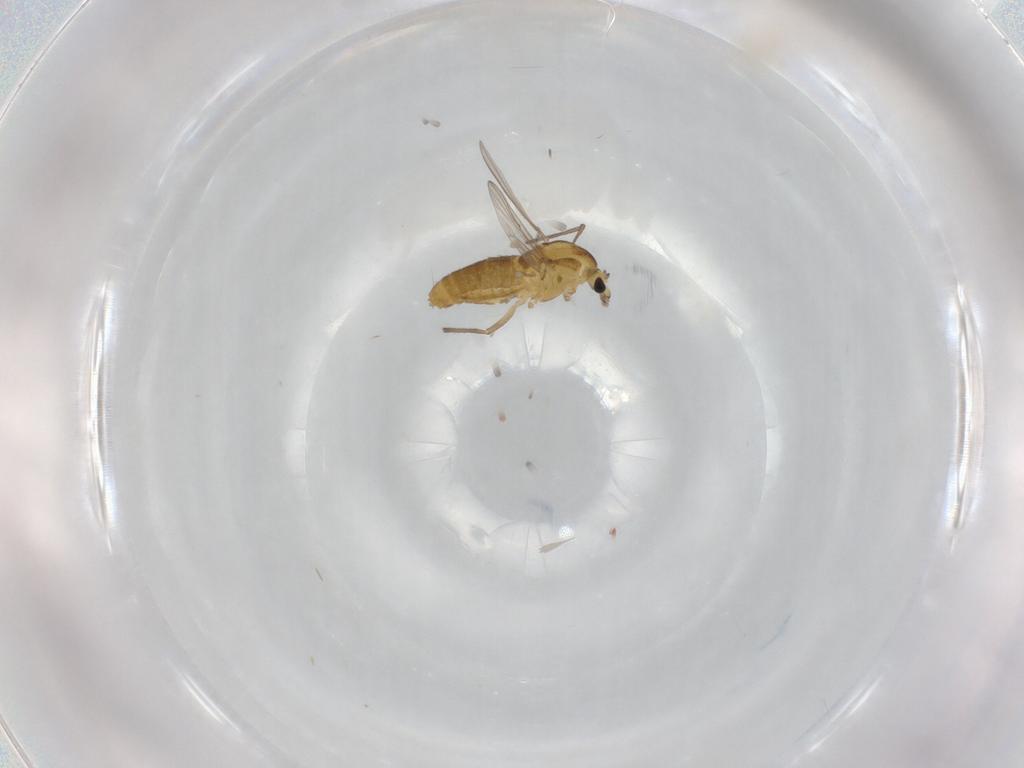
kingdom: Animalia
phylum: Arthropoda
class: Insecta
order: Diptera
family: Chironomidae
